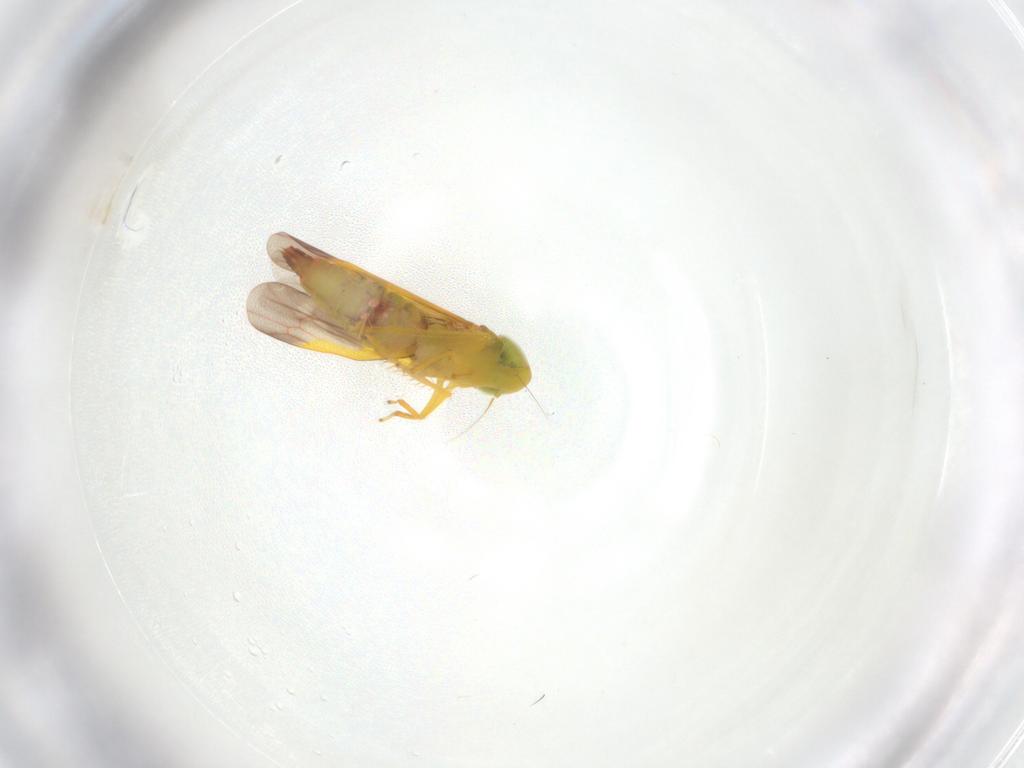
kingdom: Animalia
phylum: Arthropoda
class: Insecta
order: Hemiptera
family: Cicadellidae
